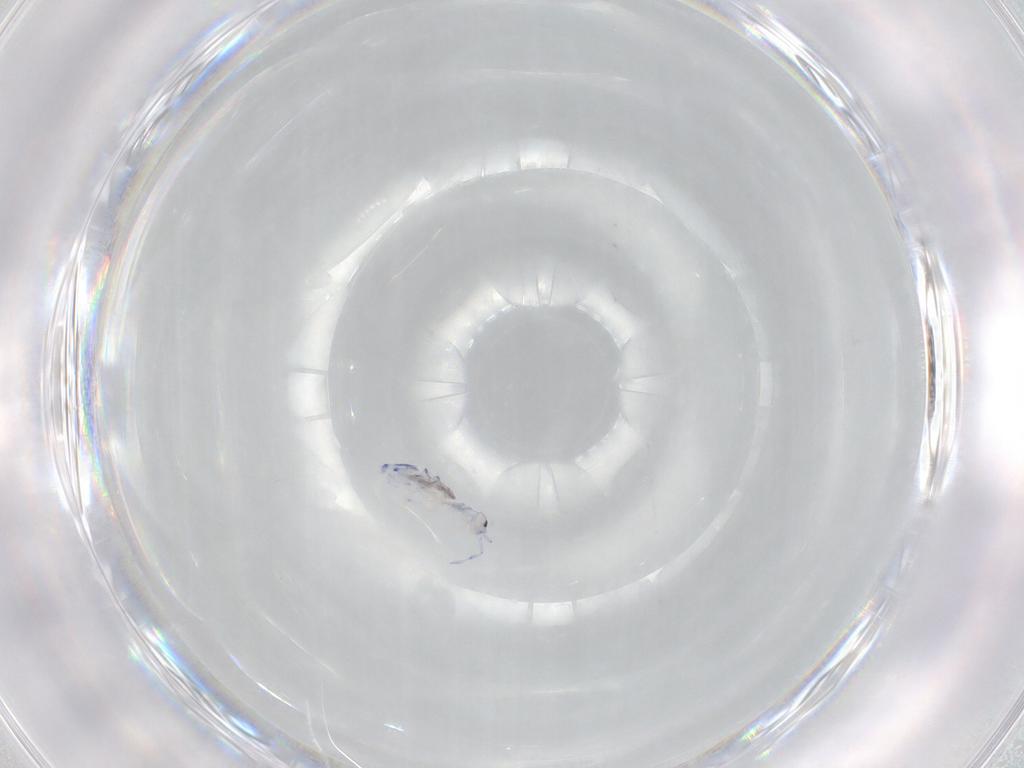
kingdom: Animalia
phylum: Arthropoda
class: Collembola
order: Entomobryomorpha
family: Entomobryidae
